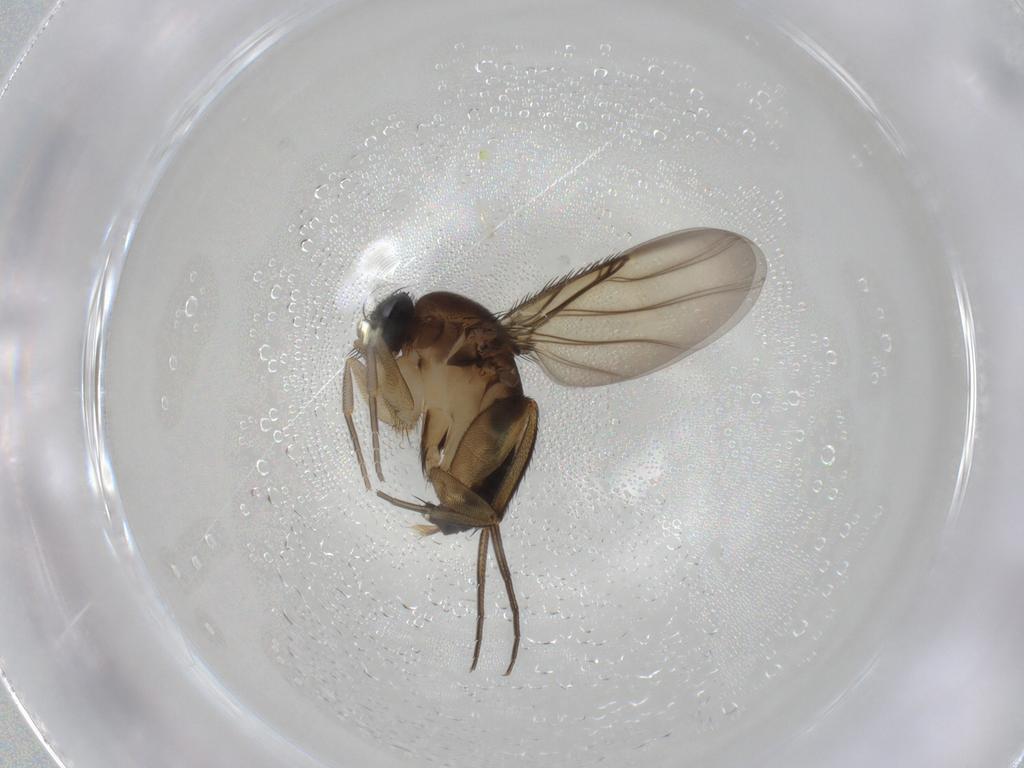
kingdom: Animalia
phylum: Arthropoda
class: Insecta
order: Diptera
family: Phoridae
